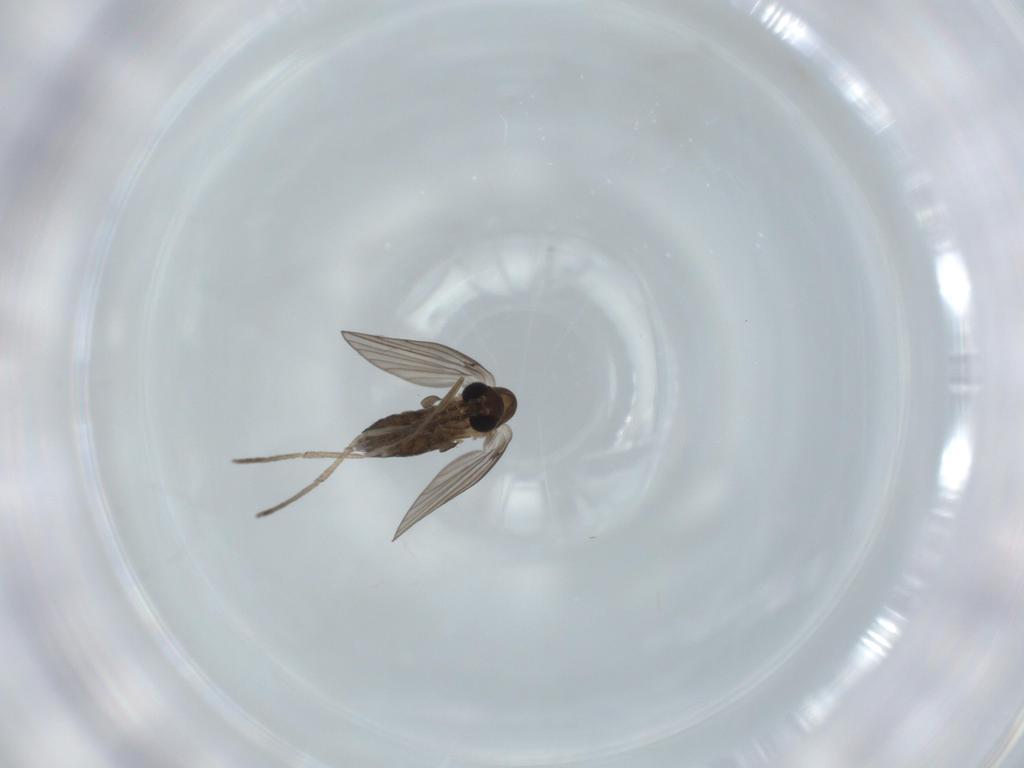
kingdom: Animalia
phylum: Arthropoda
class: Insecta
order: Diptera
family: Psychodidae
